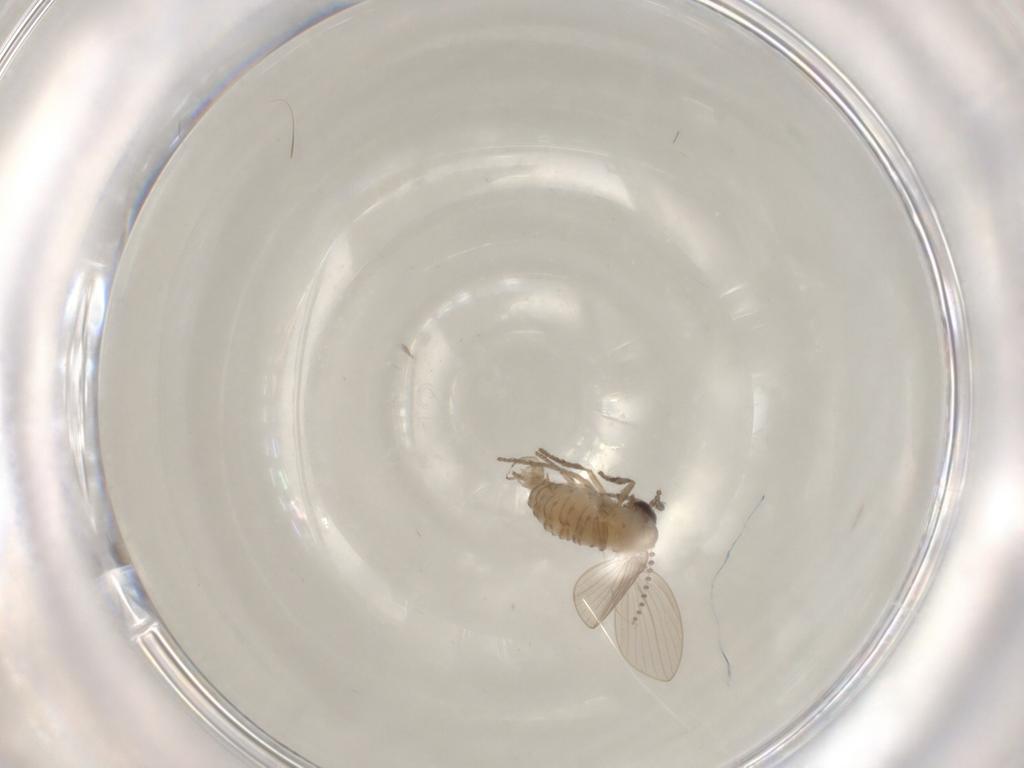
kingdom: Animalia
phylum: Arthropoda
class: Insecta
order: Diptera
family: Psychodidae
